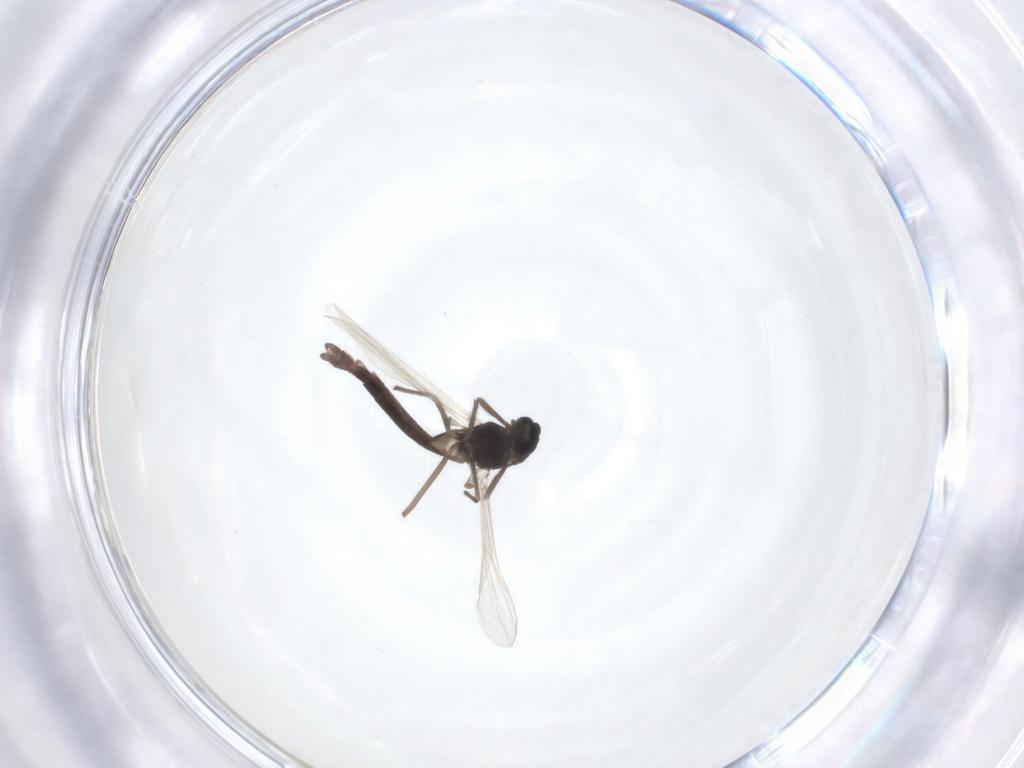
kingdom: Animalia
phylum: Arthropoda
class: Insecta
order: Diptera
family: Chironomidae
